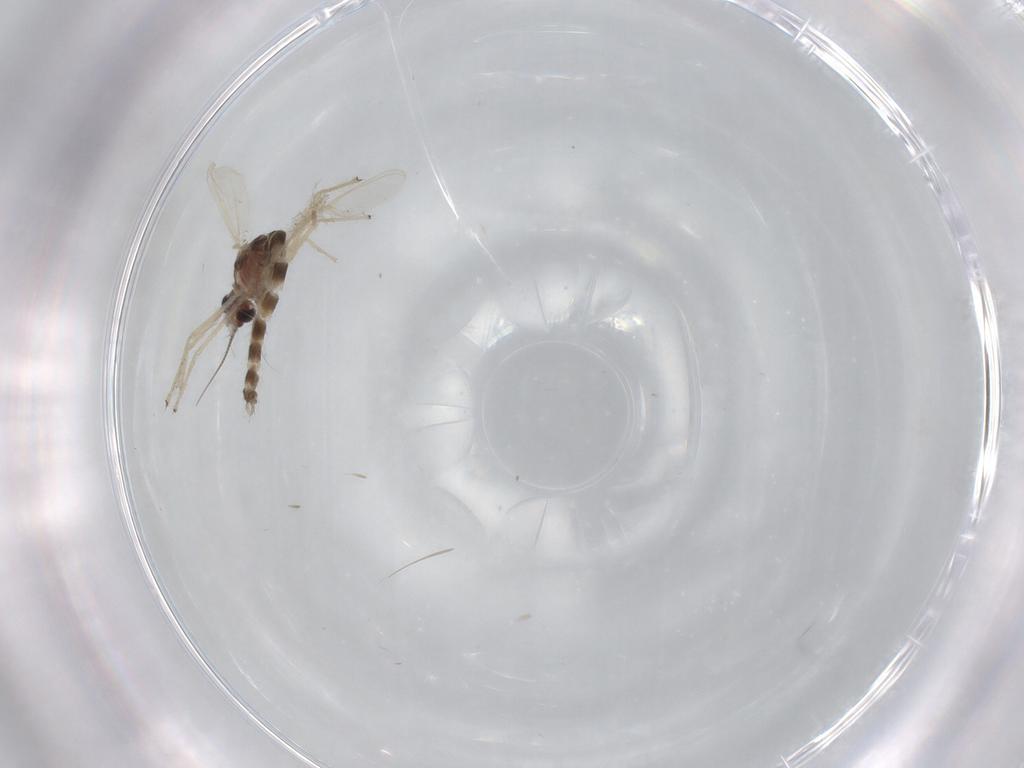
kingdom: Animalia
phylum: Arthropoda
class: Insecta
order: Diptera
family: Chironomidae
